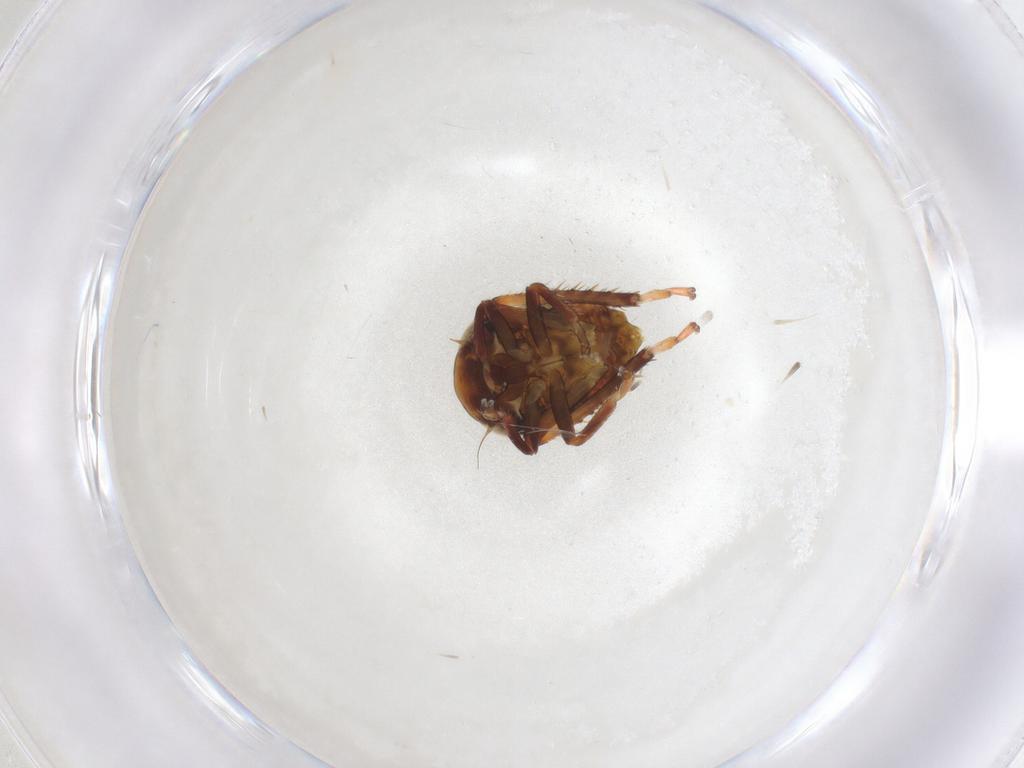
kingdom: Animalia
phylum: Arthropoda
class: Insecta
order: Hemiptera
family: Cicadellidae
